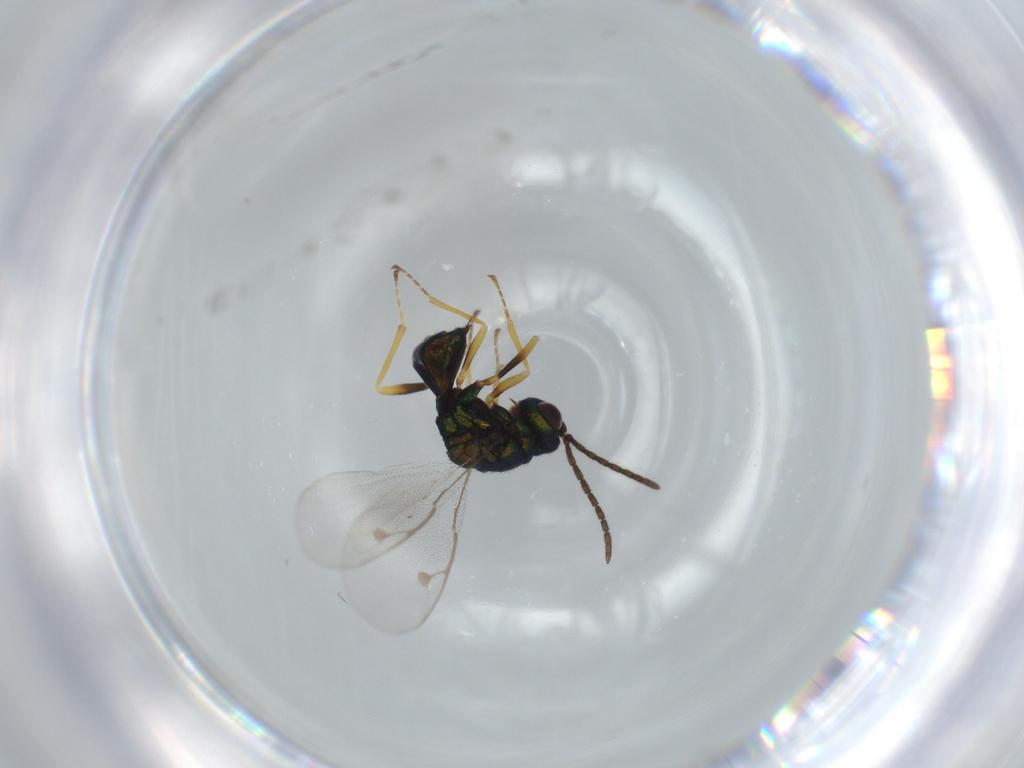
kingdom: Animalia
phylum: Arthropoda
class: Insecta
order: Hymenoptera
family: Pteromalidae
